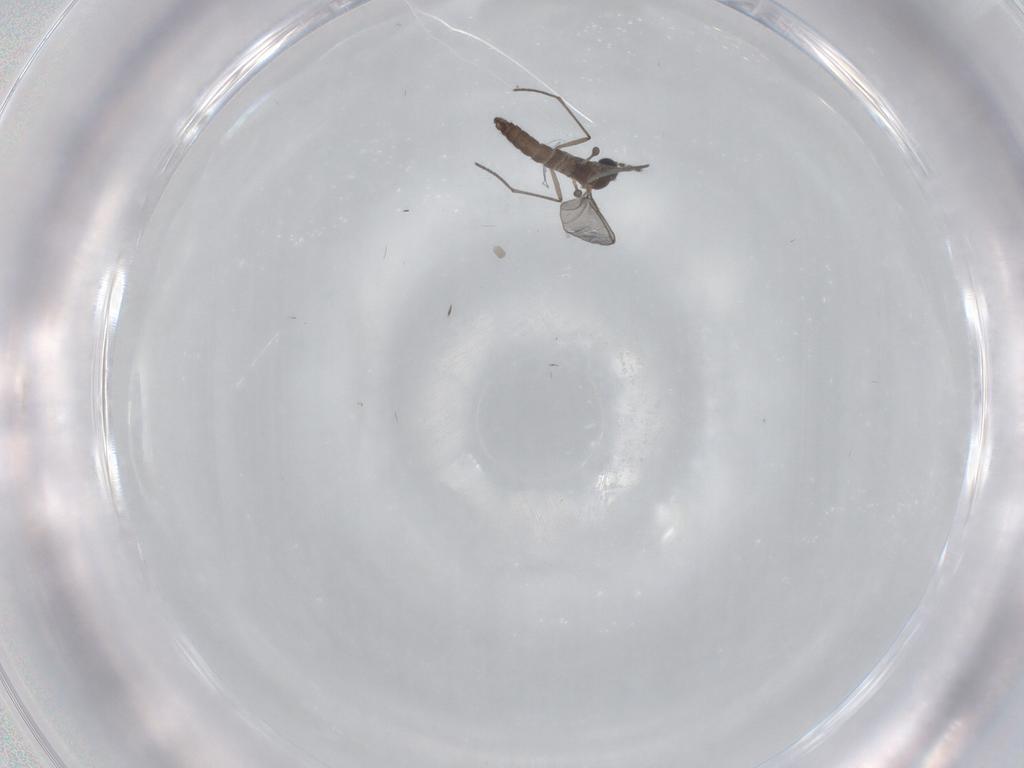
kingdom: Animalia
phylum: Arthropoda
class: Insecta
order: Diptera
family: Sciaridae
